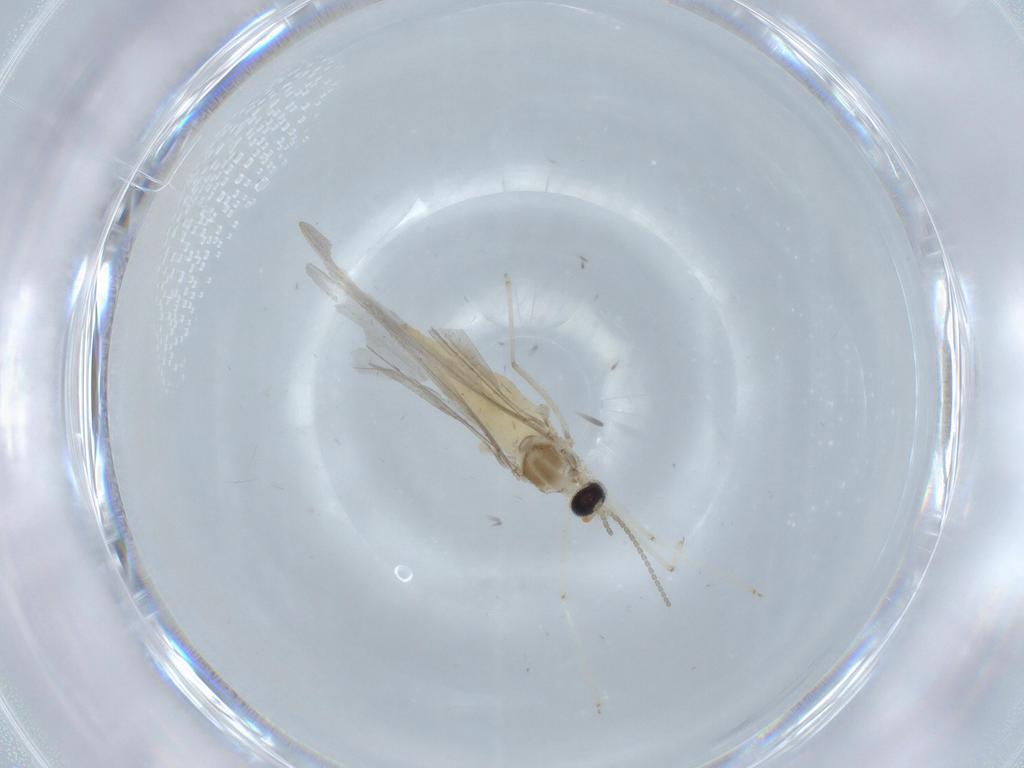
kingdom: Animalia
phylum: Arthropoda
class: Insecta
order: Diptera
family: Cecidomyiidae
